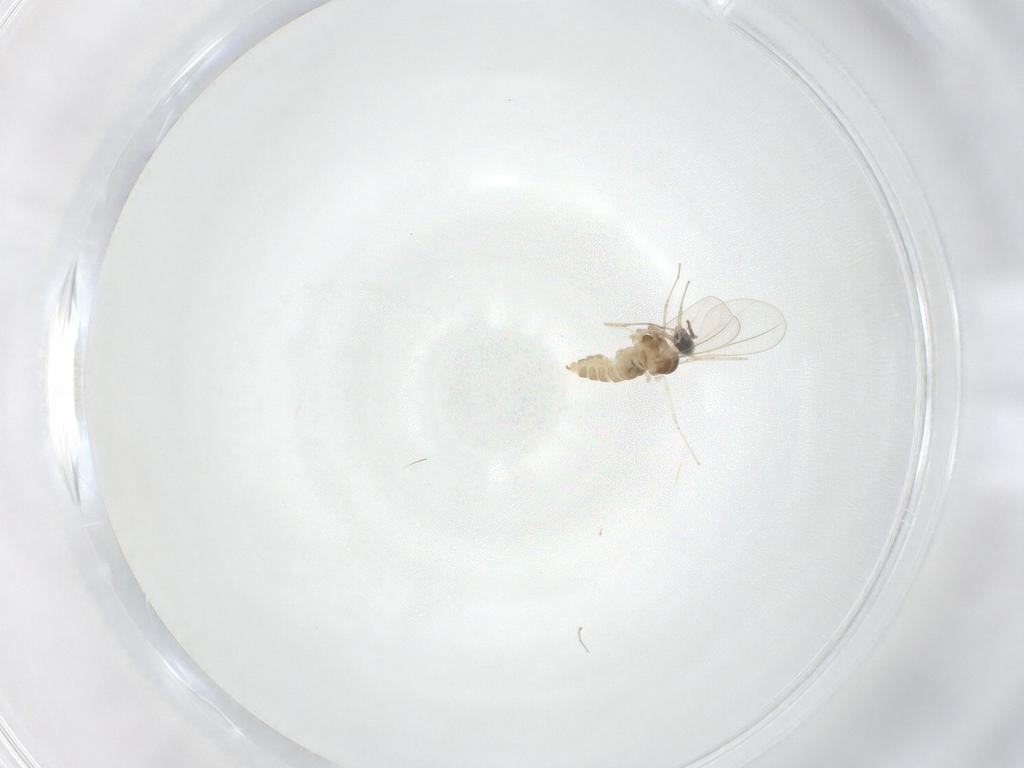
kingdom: Animalia
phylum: Arthropoda
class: Insecta
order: Diptera
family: Cecidomyiidae
